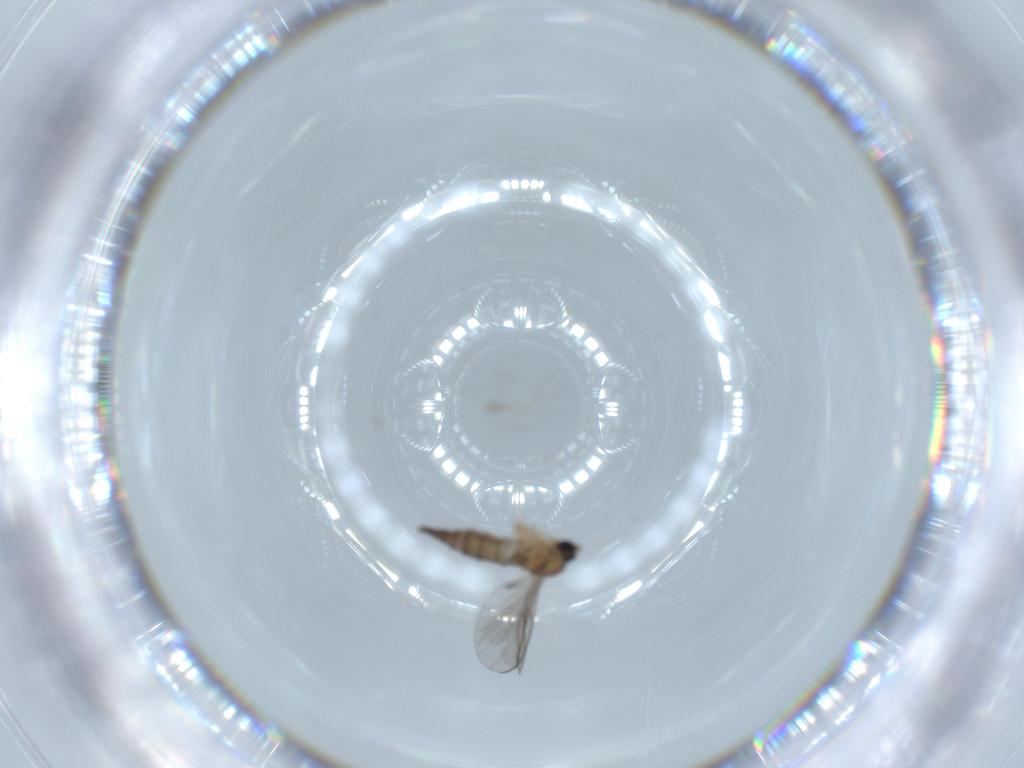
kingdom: Animalia
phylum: Arthropoda
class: Insecta
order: Diptera
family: Sciaridae
